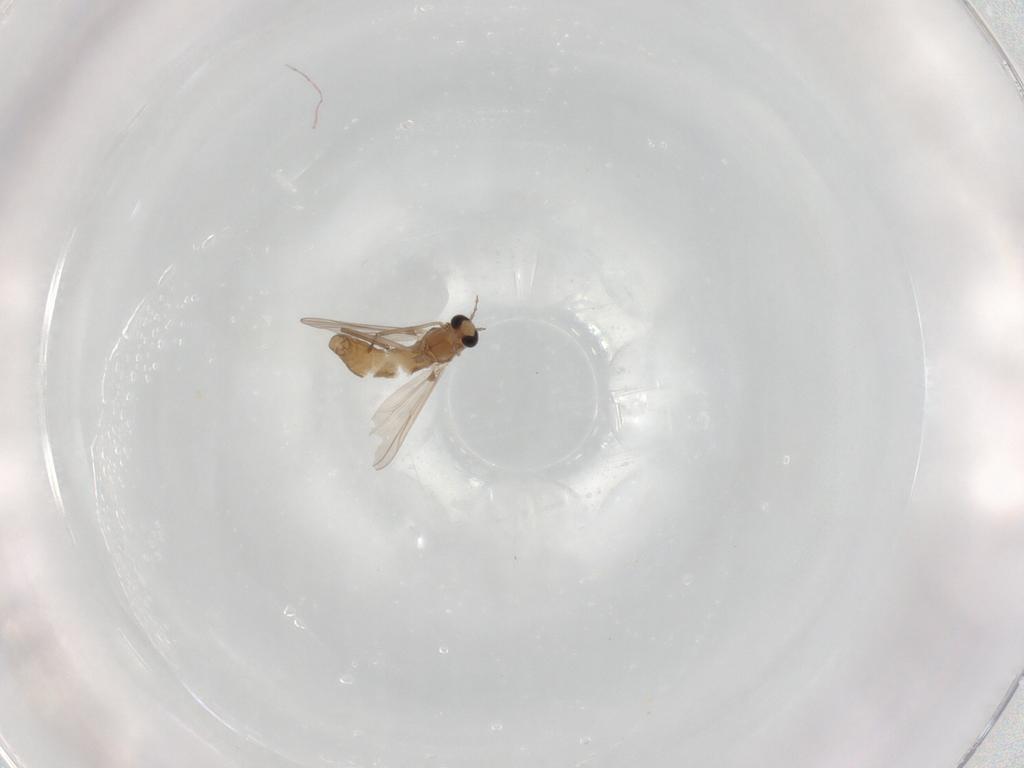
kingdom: Animalia
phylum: Arthropoda
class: Insecta
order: Diptera
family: Chironomidae
